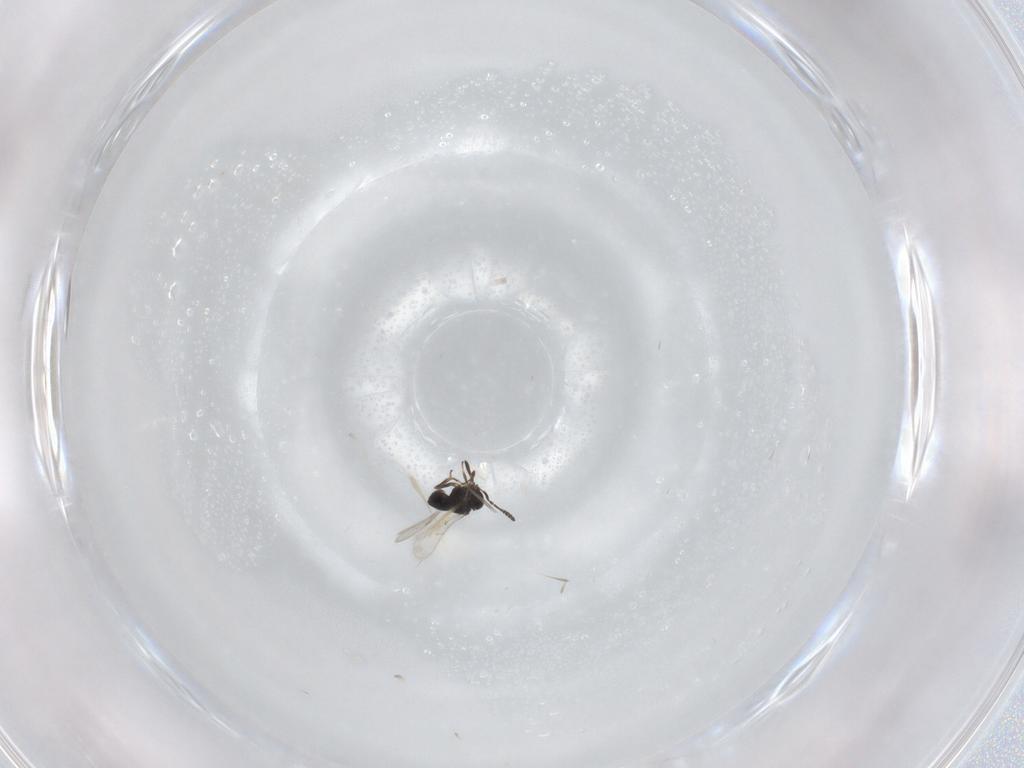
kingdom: Animalia
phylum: Arthropoda
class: Insecta
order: Hymenoptera
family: Scelionidae
